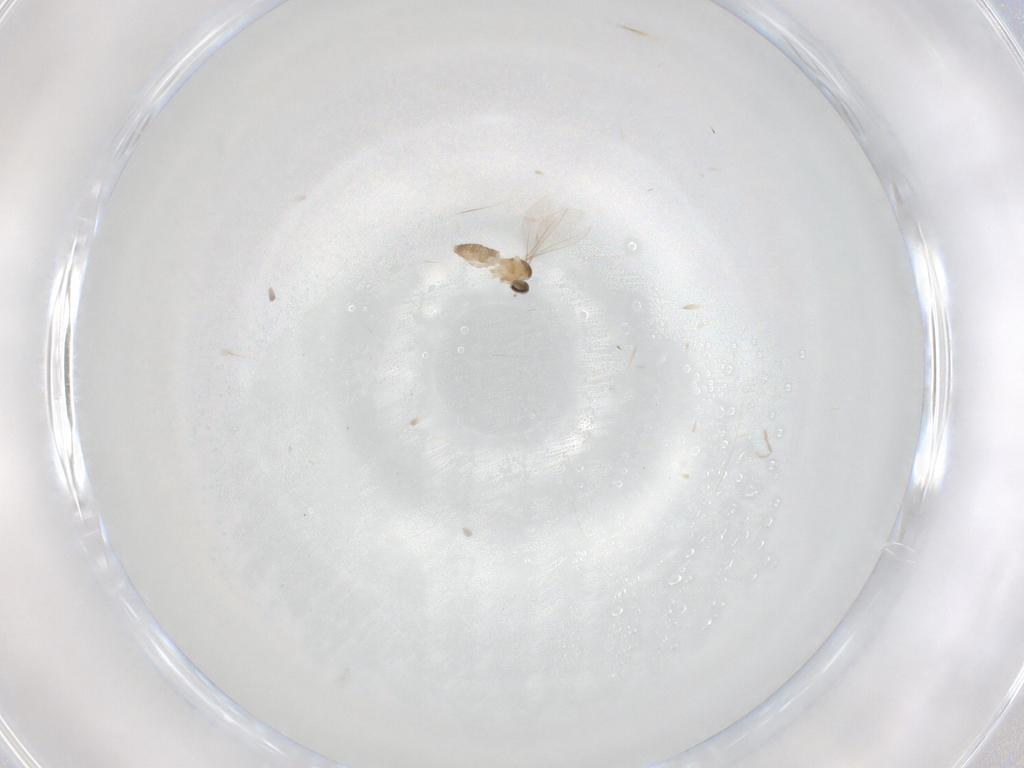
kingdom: Animalia
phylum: Arthropoda
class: Insecta
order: Diptera
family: Cecidomyiidae
